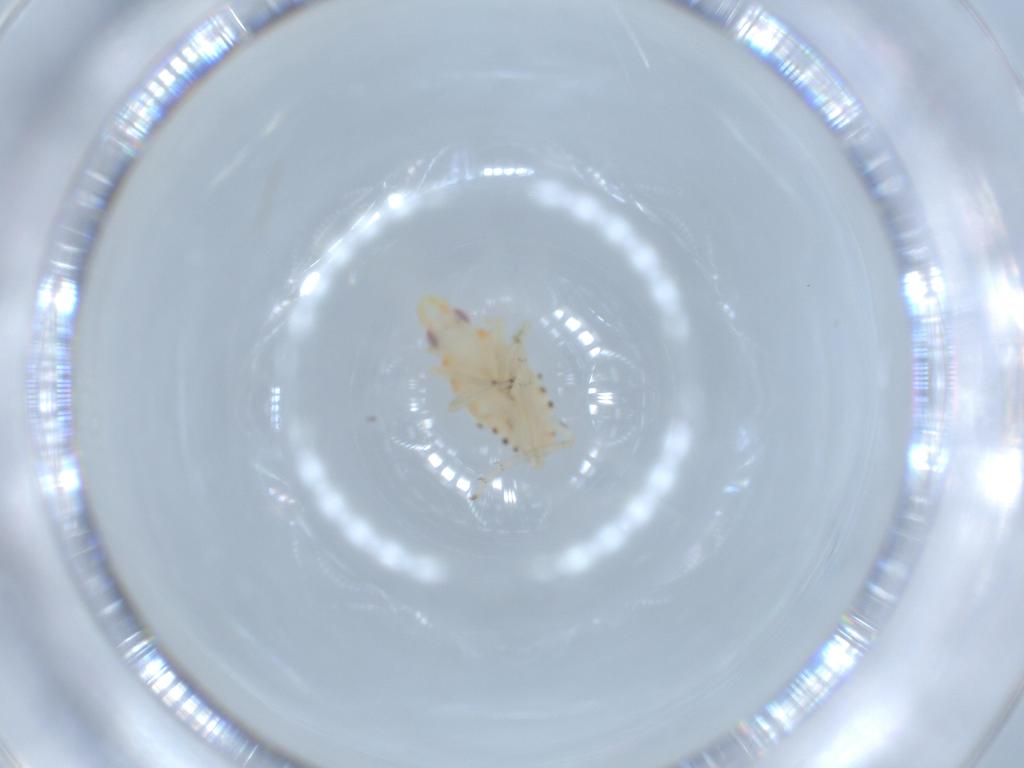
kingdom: Animalia
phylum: Arthropoda
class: Insecta
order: Hemiptera
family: Tropiduchidae
